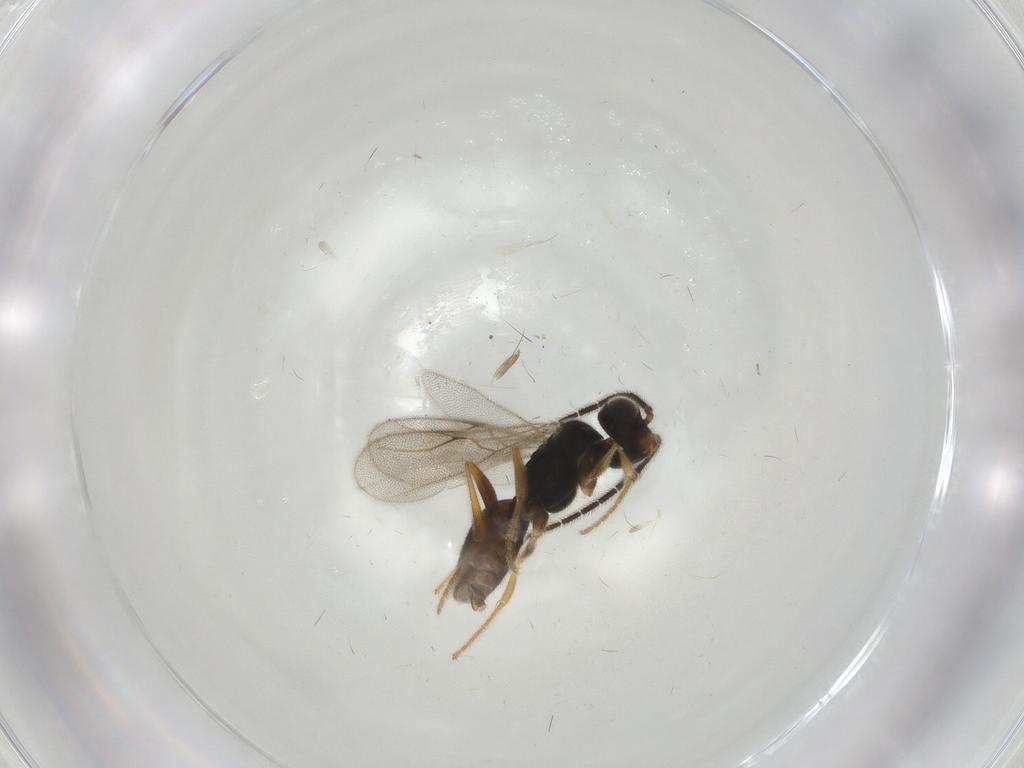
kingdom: Animalia
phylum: Arthropoda
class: Insecta
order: Hymenoptera
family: Dryinidae
